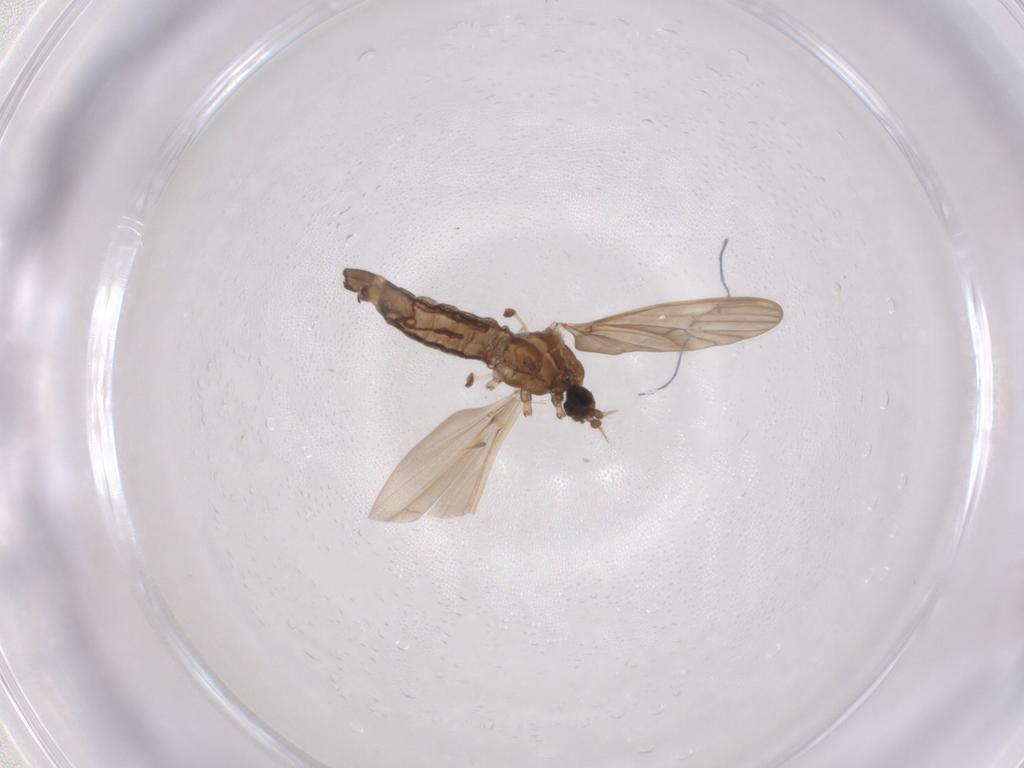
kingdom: Animalia
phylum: Arthropoda
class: Insecta
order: Diptera
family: Limoniidae
